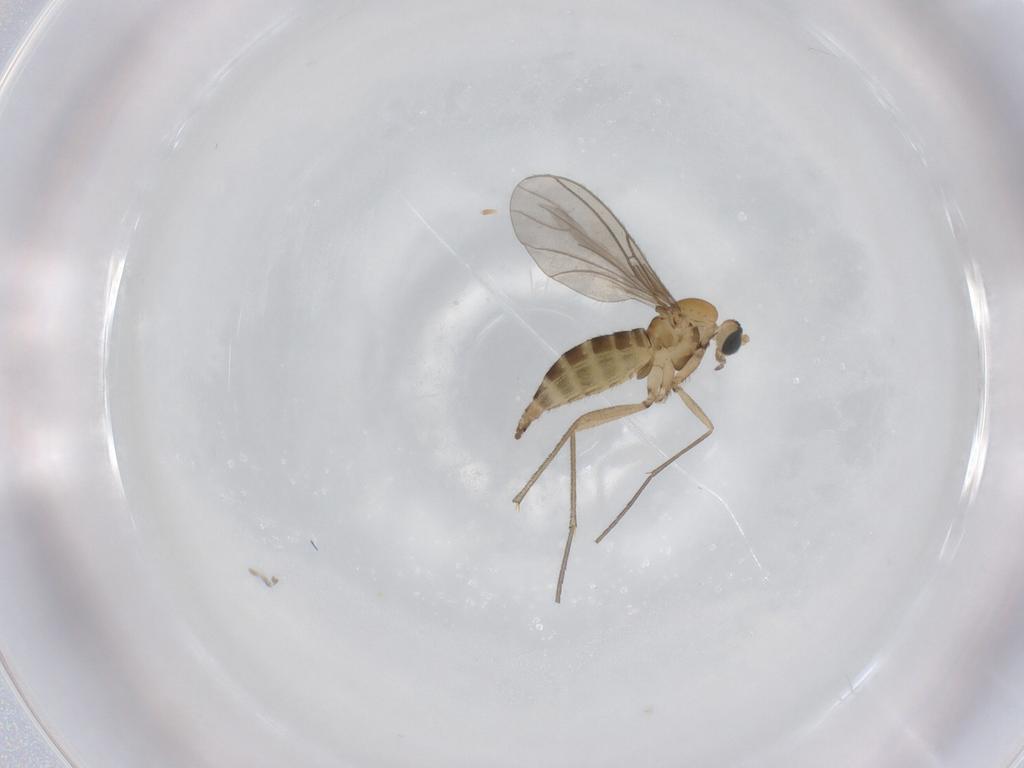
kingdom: Animalia
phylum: Arthropoda
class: Insecta
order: Diptera
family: Sciaridae
